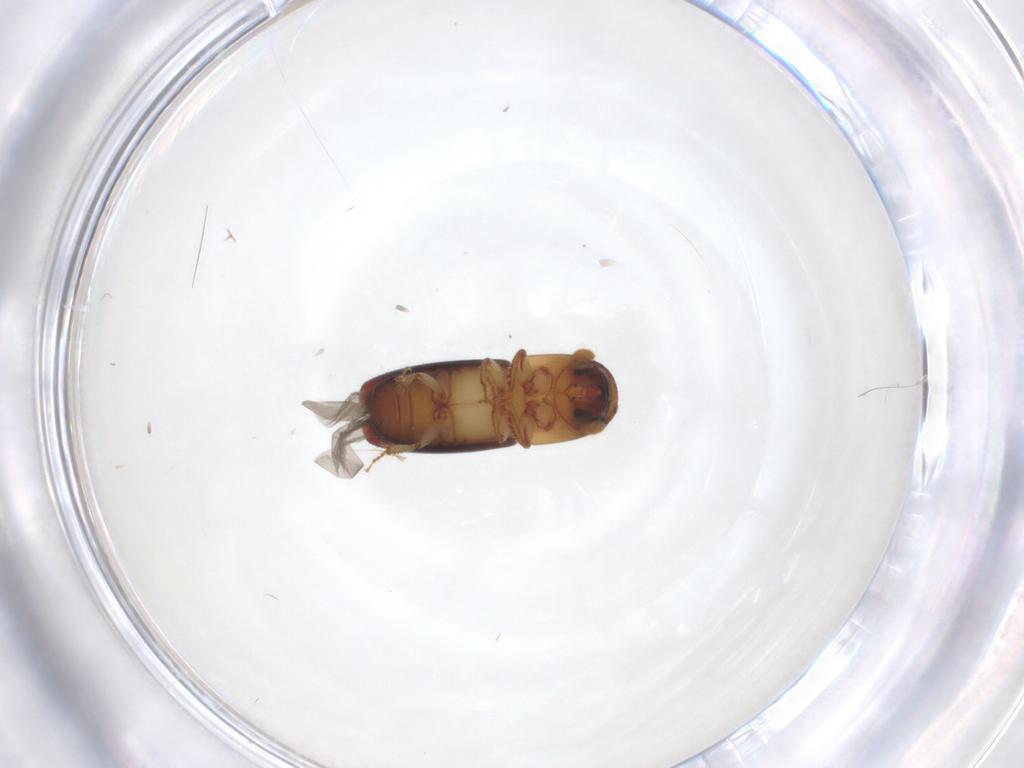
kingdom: Animalia
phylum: Arthropoda
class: Insecta
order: Coleoptera
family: Curculionidae
